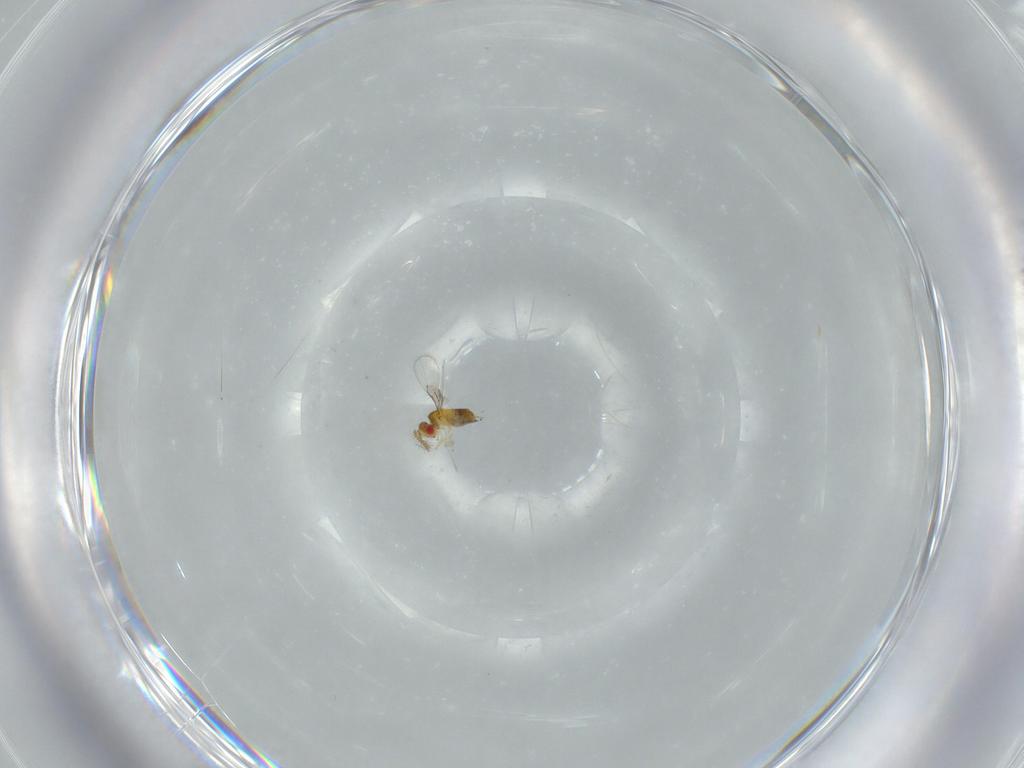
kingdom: Animalia
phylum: Arthropoda
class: Insecta
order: Hymenoptera
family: Trichogrammatidae
